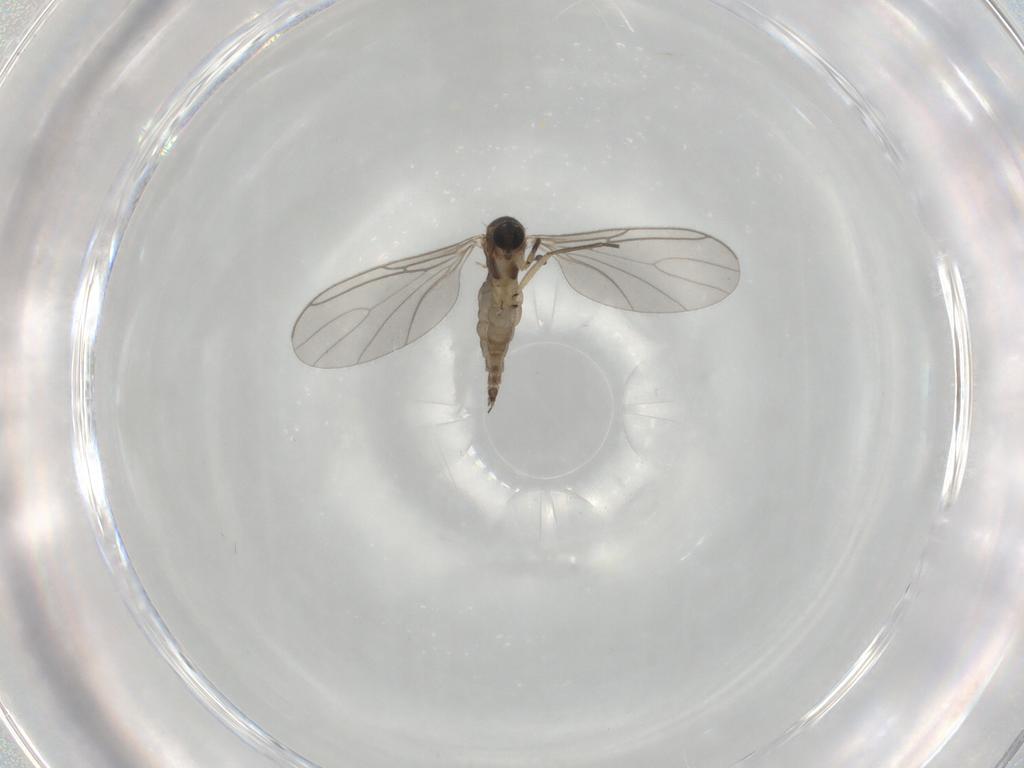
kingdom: Animalia
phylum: Arthropoda
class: Insecta
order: Diptera
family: Sciaridae
